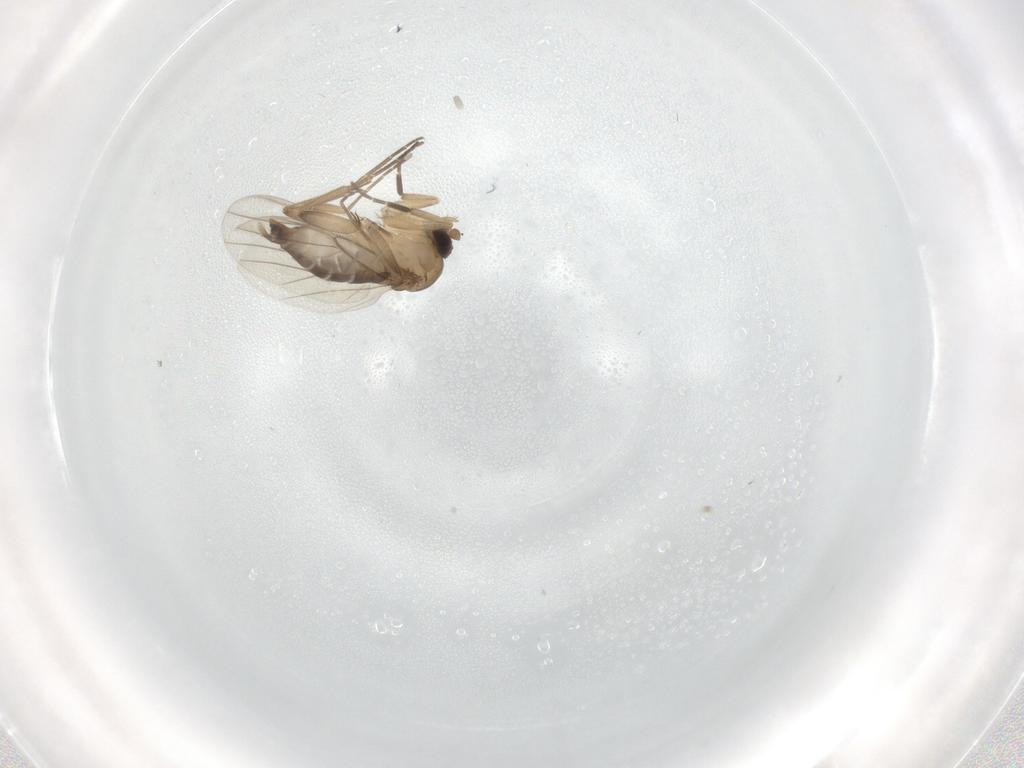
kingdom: Animalia
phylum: Arthropoda
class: Insecta
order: Diptera
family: Phoridae
